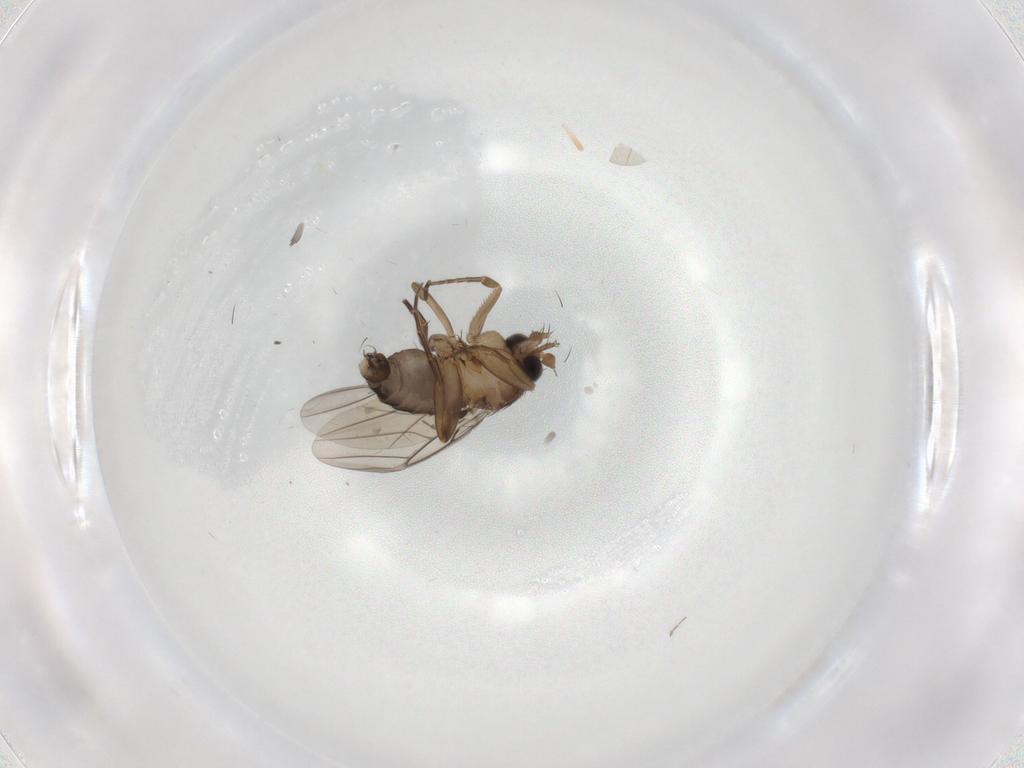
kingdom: Animalia
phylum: Arthropoda
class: Insecta
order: Diptera
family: Phoridae
